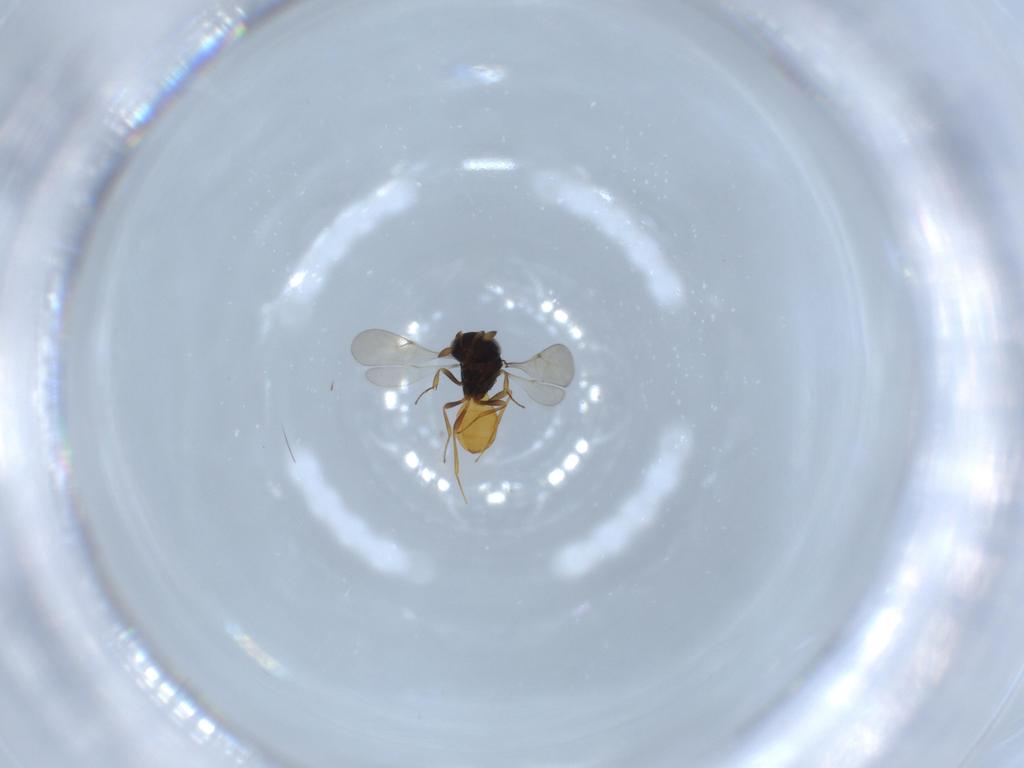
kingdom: Animalia
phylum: Arthropoda
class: Insecta
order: Hymenoptera
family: Scelionidae
